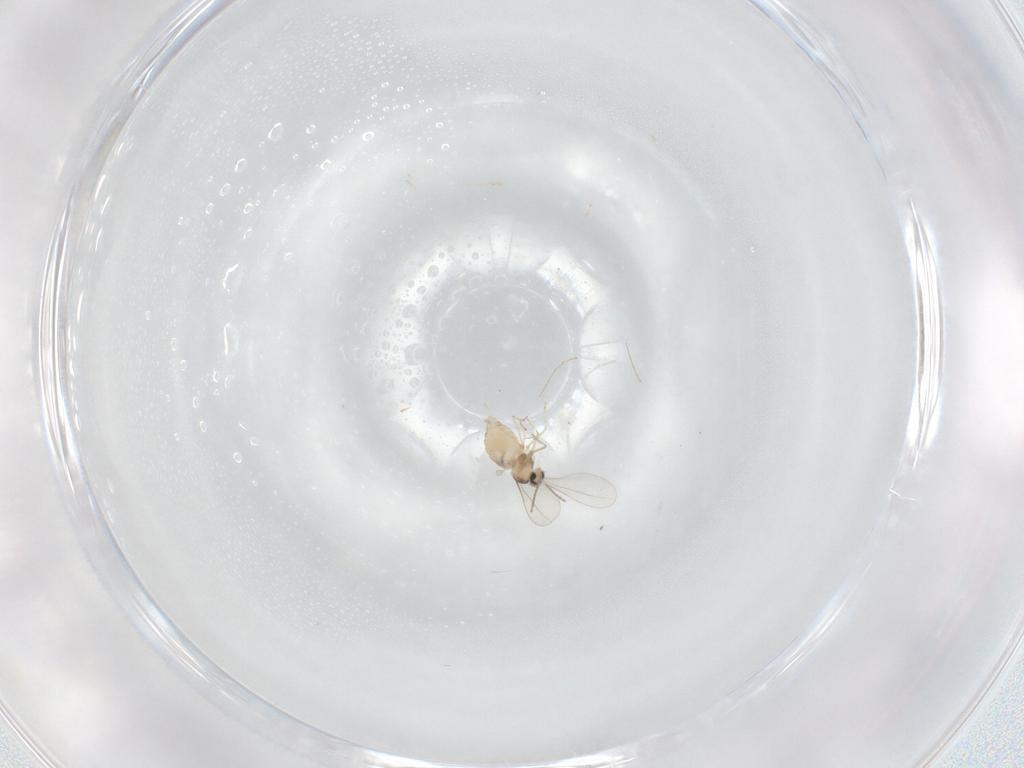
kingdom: Animalia
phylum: Arthropoda
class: Insecta
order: Diptera
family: Cecidomyiidae
